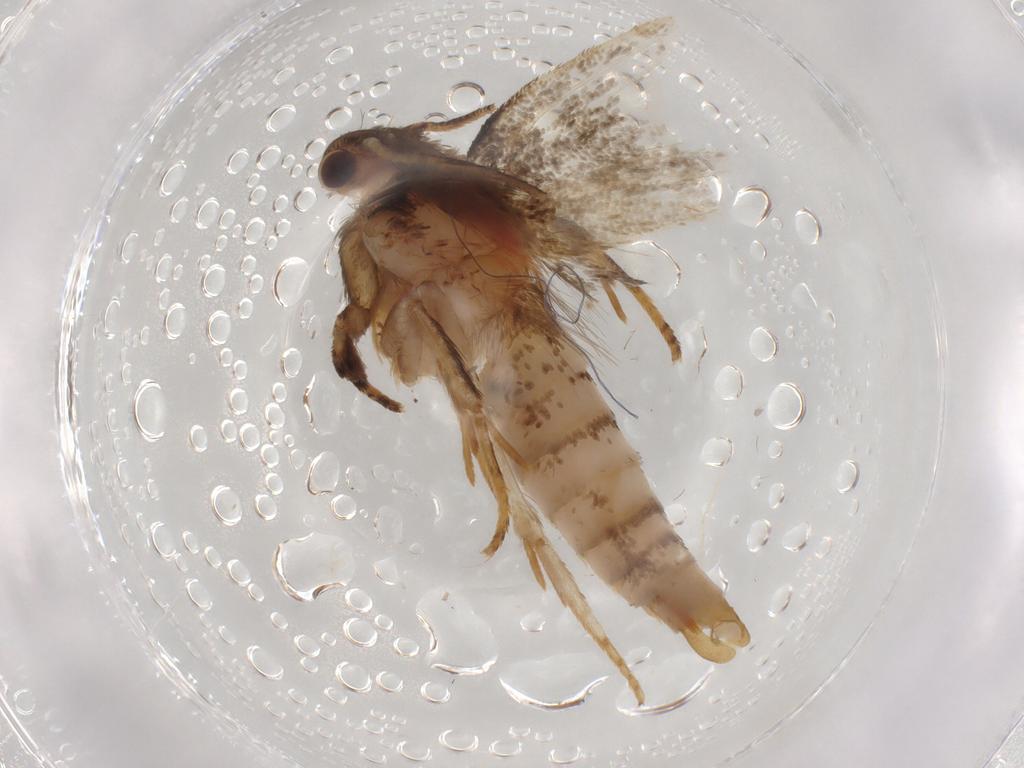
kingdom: Animalia
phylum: Arthropoda
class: Insecta
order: Lepidoptera
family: Tineidae
